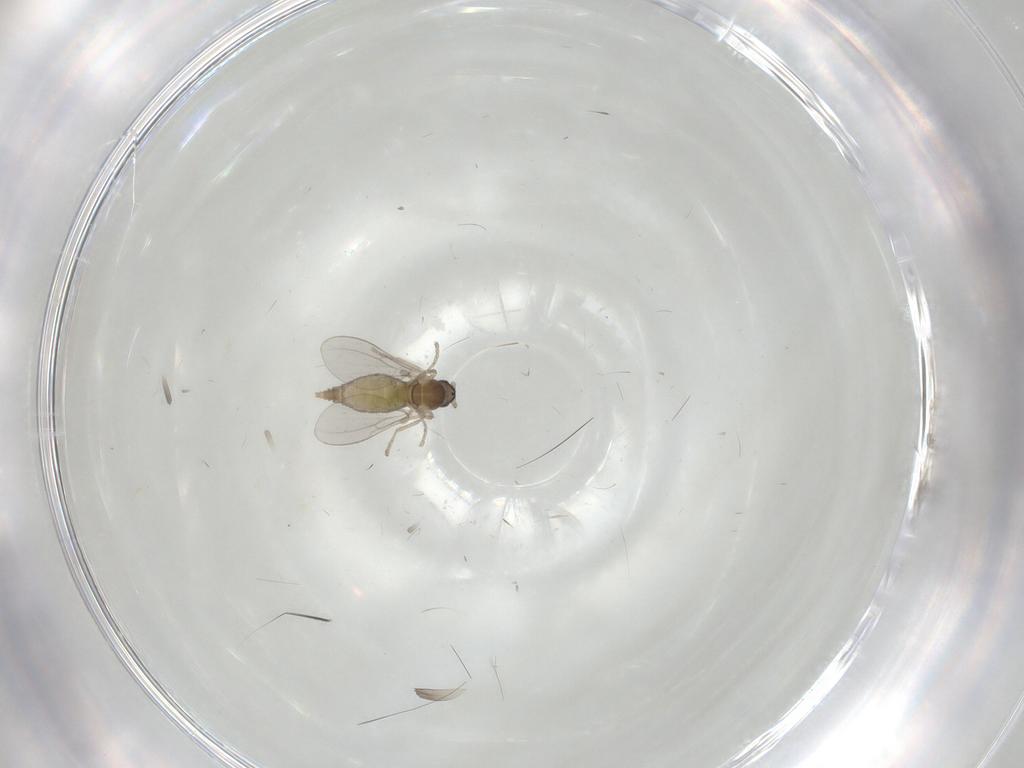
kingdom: Animalia
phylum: Arthropoda
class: Insecta
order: Diptera
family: Cecidomyiidae
